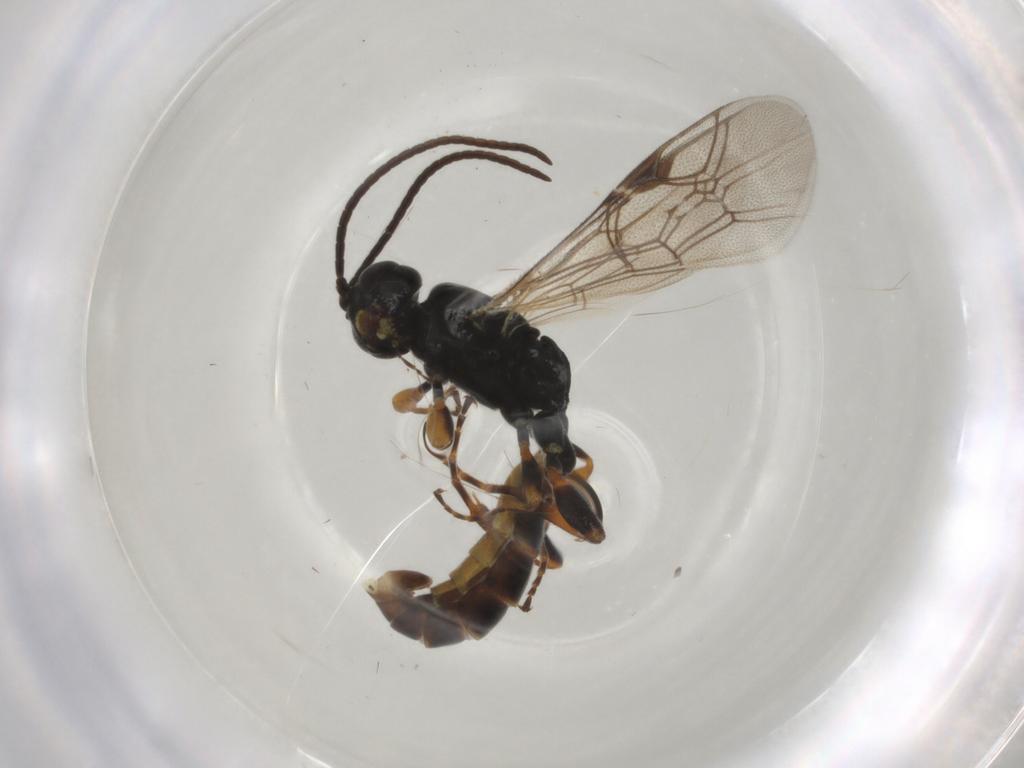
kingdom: Animalia
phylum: Arthropoda
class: Insecta
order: Hymenoptera
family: Ichneumonidae
